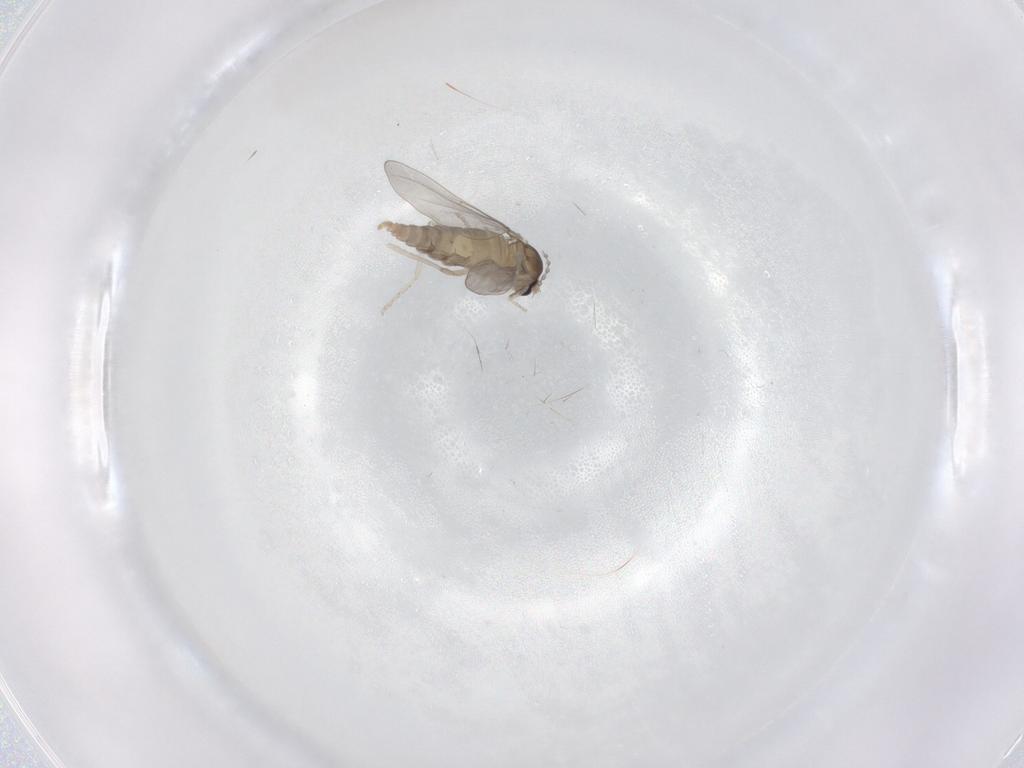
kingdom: Animalia
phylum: Arthropoda
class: Insecta
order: Diptera
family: Cecidomyiidae
